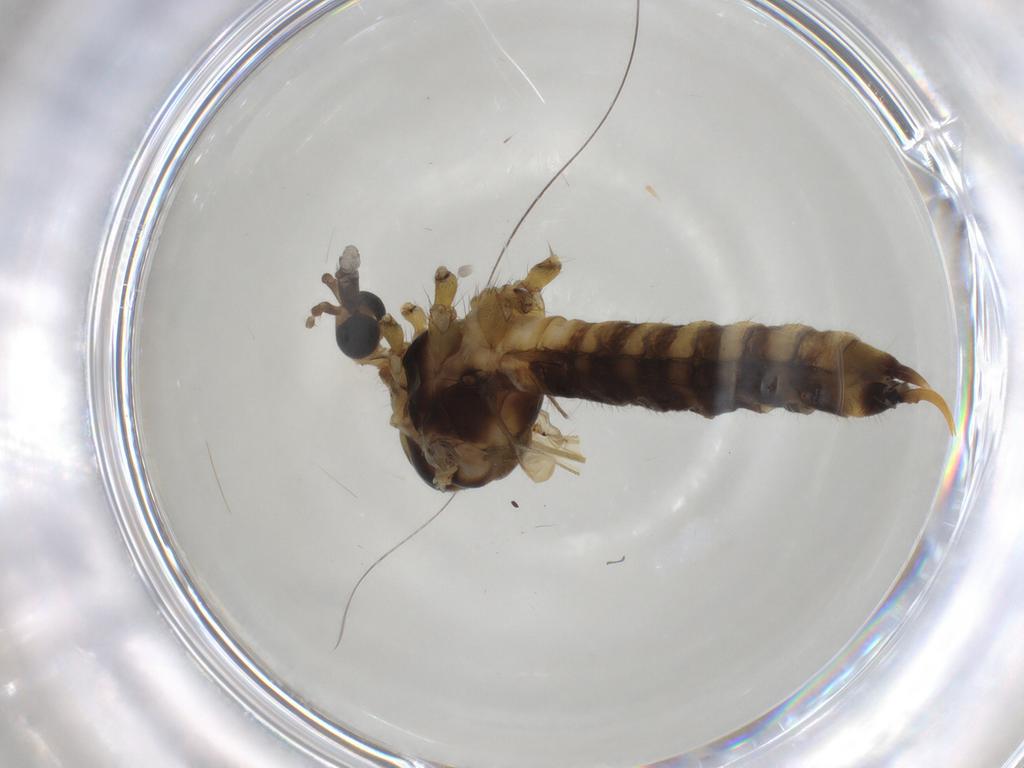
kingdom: Animalia
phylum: Arthropoda
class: Insecta
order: Diptera
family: Limoniidae
